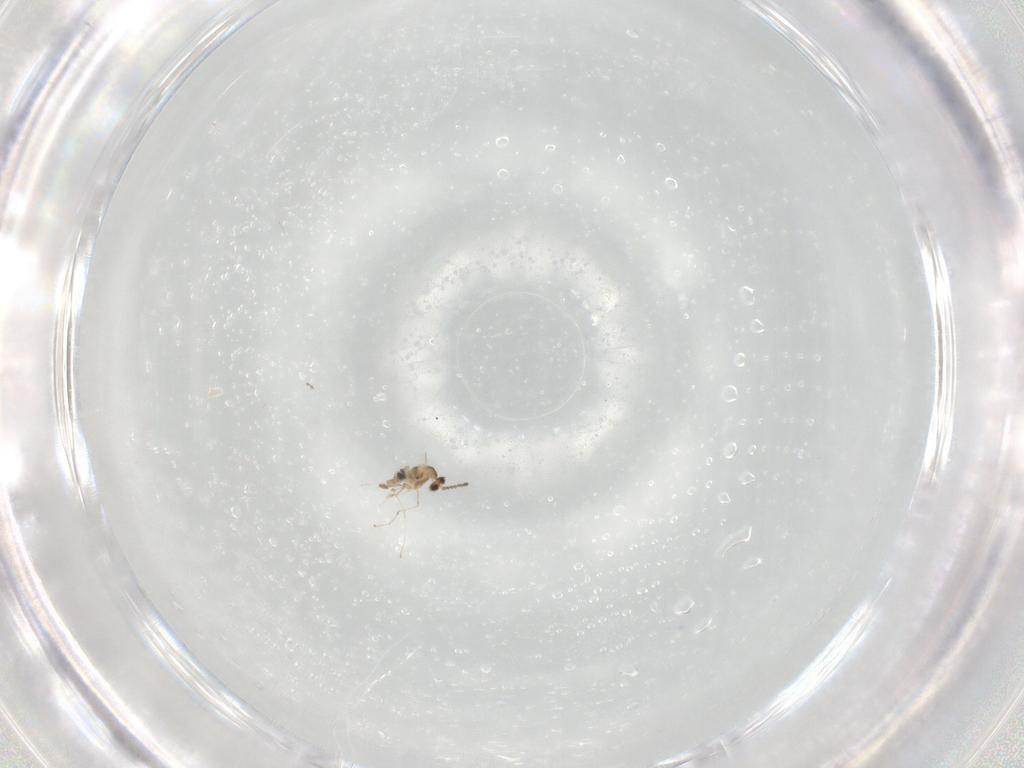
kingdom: Animalia
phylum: Arthropoda
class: Insecta
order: Diptera
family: Cecidomyiidae
